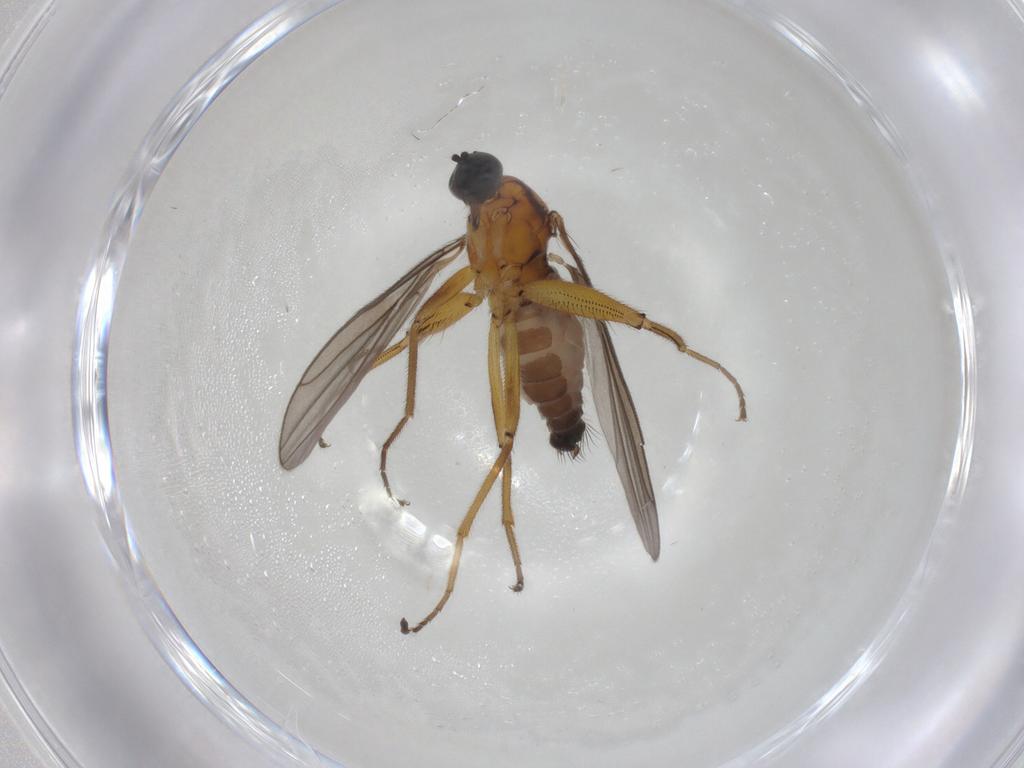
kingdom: Animalia
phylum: Arthropoda
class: Insecta
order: Diptera
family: Hybotidae
